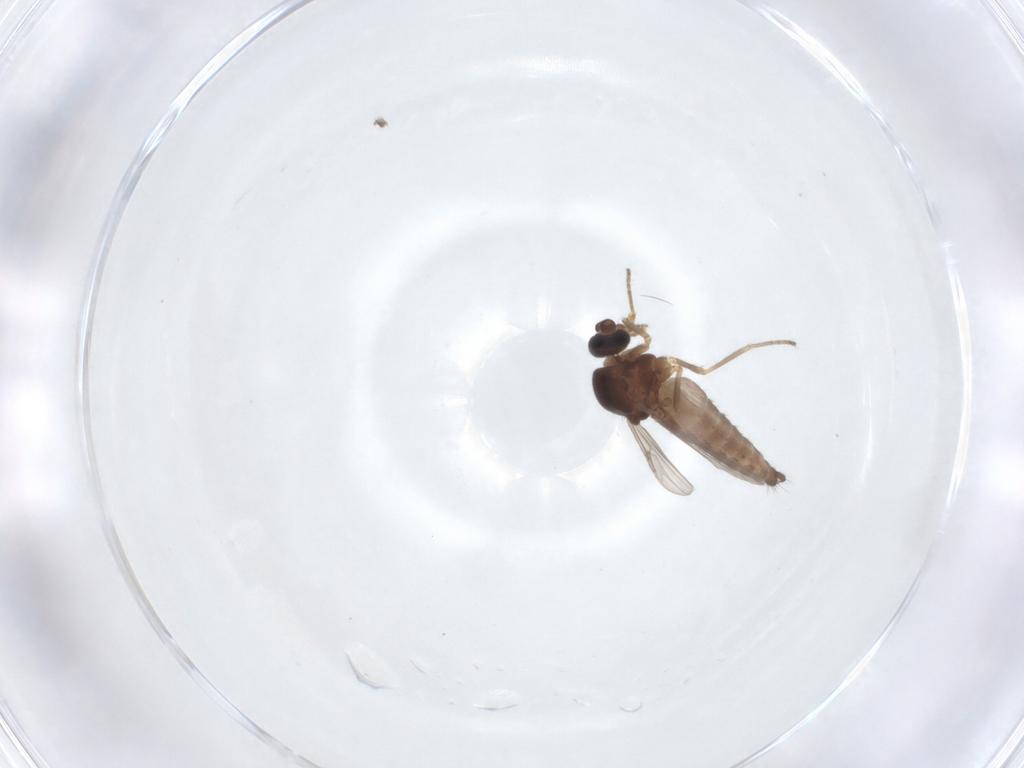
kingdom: Animalia
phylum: Arthropoda
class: Insecta
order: Diptera
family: Ceratopogonidae
